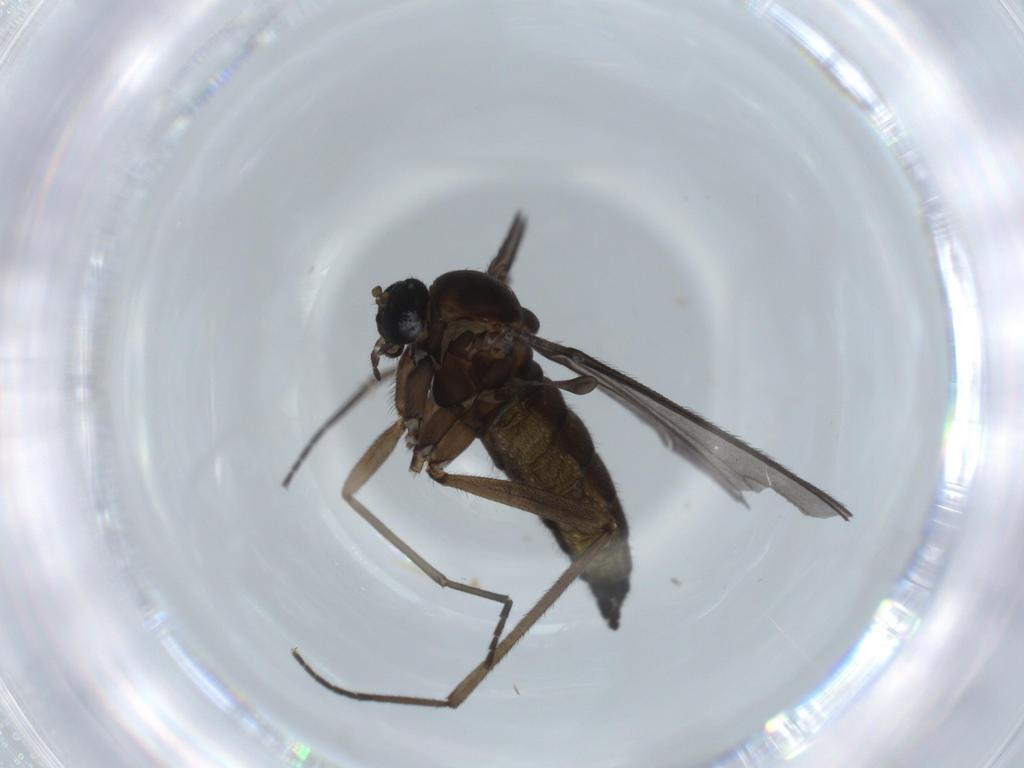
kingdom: Animalia
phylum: Arthropoda
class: Insecta
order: Diptera
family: Sciaridae
